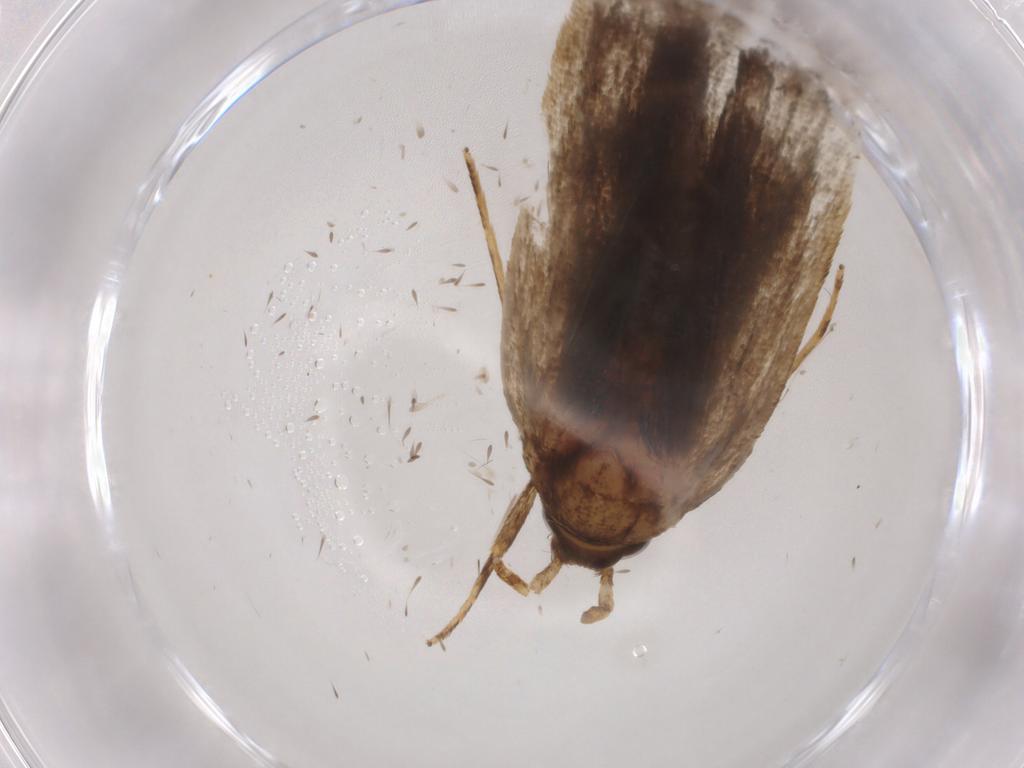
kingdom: Animalia
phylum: Arthropoda
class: Insecta
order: Lepidoptera
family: Autostichidae
